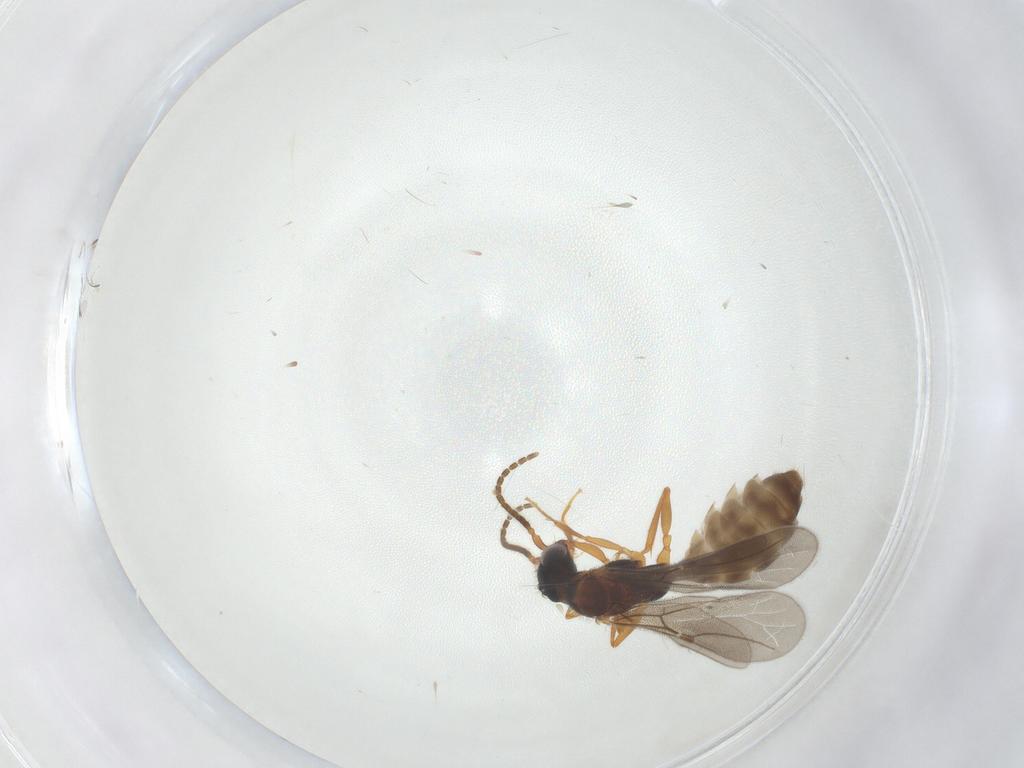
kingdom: Animalia
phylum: Arthropoda
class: Insecta
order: Hymenoptera
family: Bethylidae
